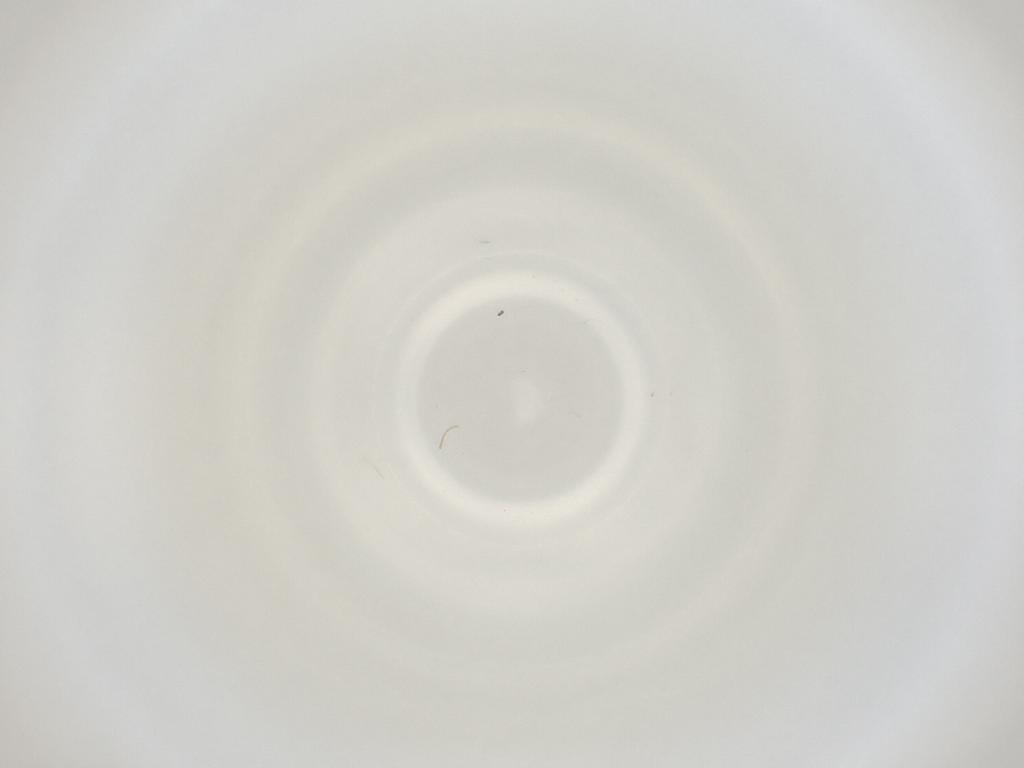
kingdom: Animalia
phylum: Arthropoda
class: Insecta
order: Diptera
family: Cecidomyiidae
